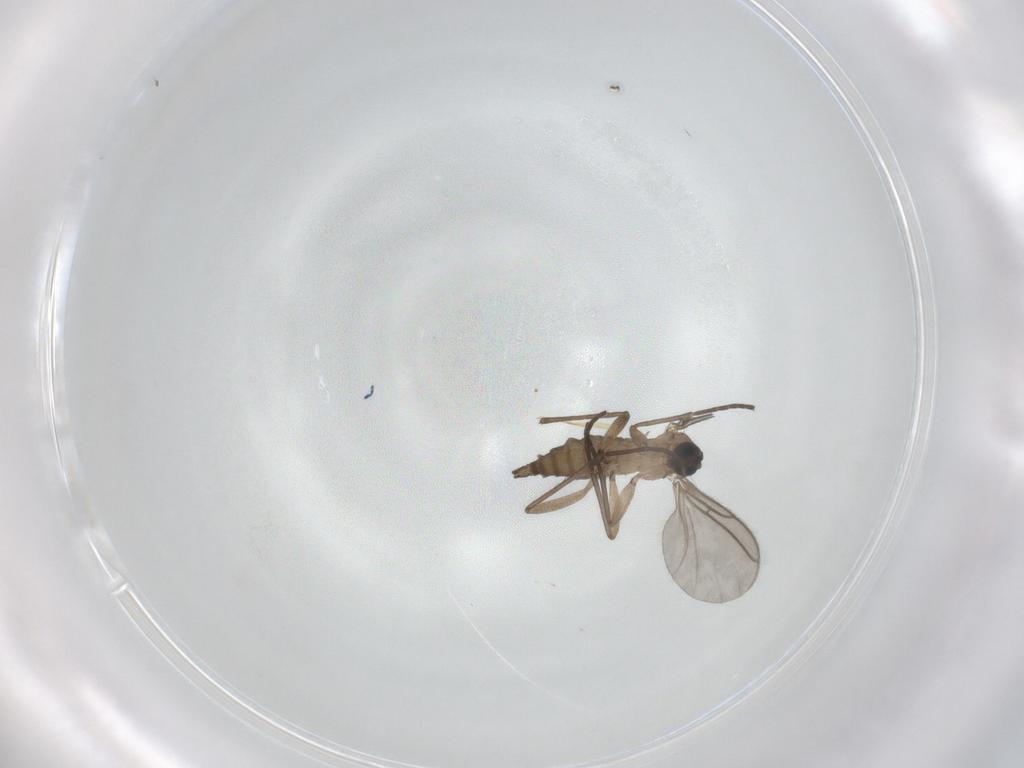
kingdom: Animalia
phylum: Arthropoda
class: Insecta
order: Diptera
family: Sciaridae
